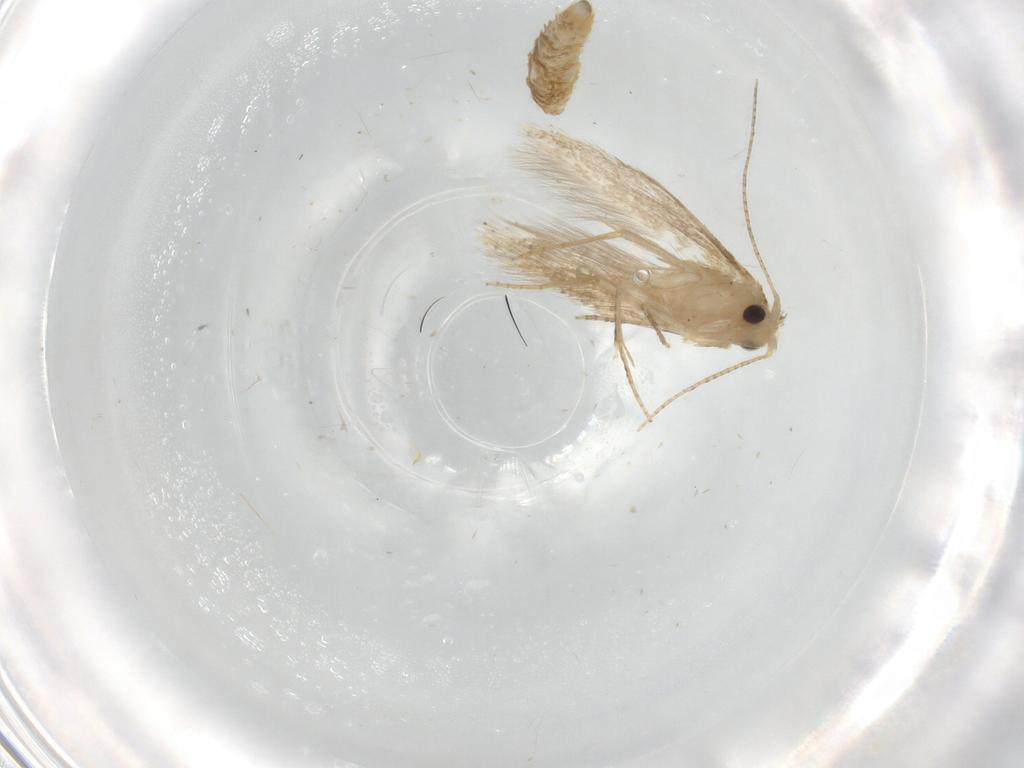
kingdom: Animalia
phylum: Arthropoda
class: Insecta
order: Lepidoptera
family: Bucculatricidae
